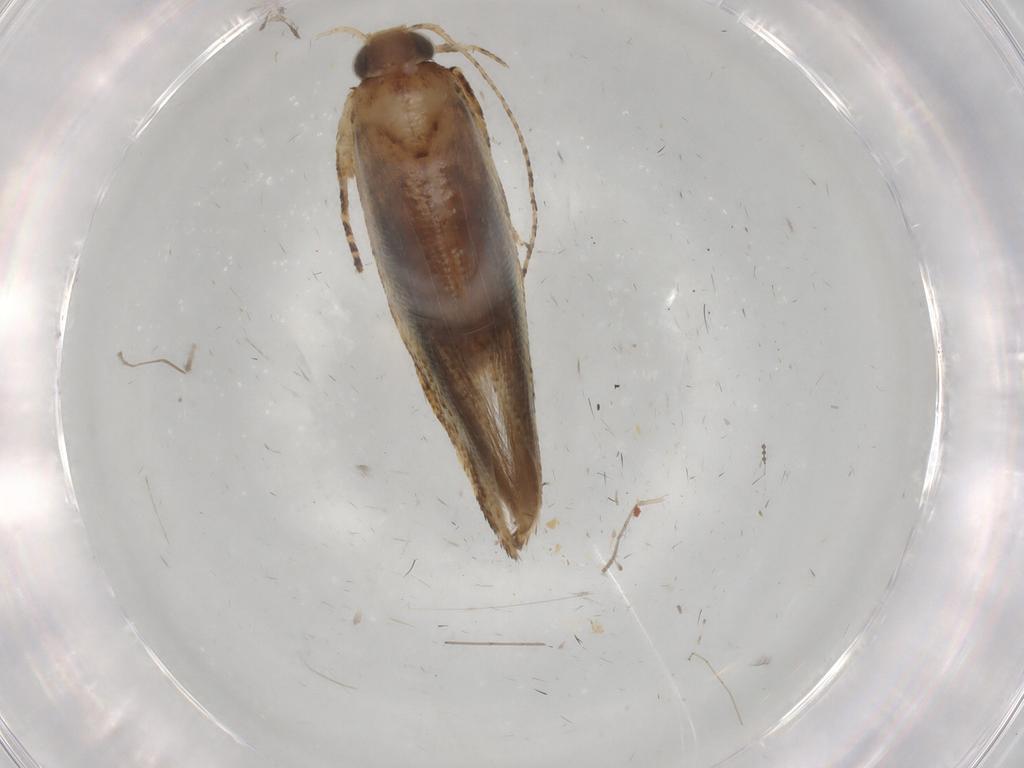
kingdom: Animalia
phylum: Arthropoda
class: Insecta
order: Lepidoptera
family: Gelechiidae
